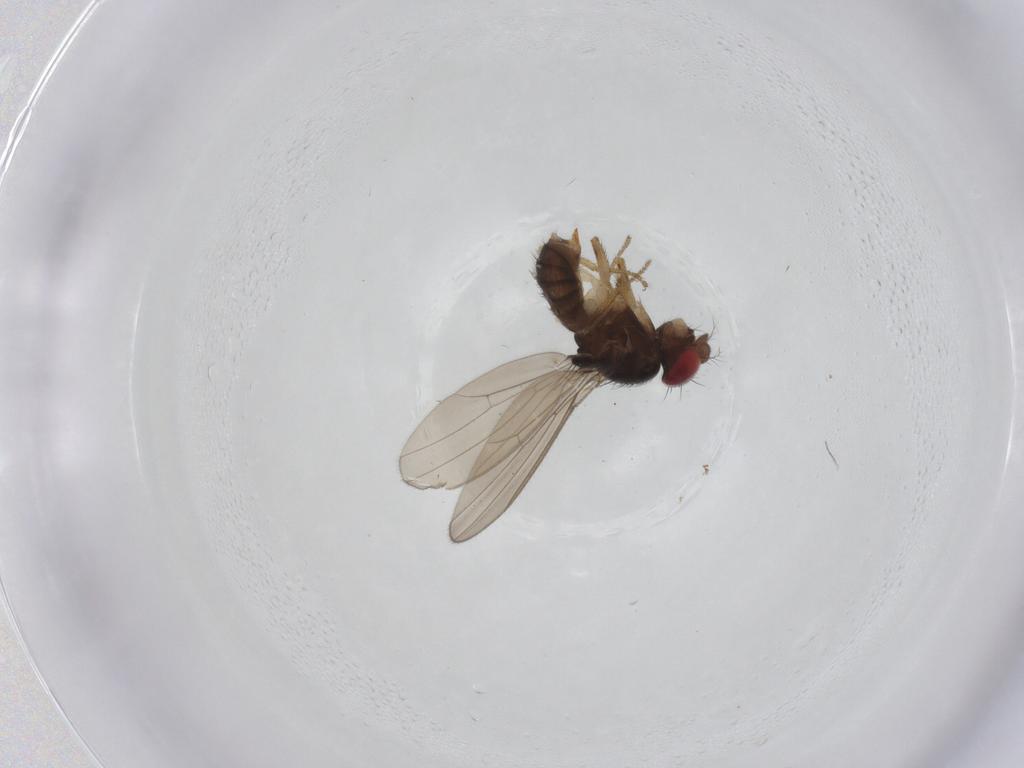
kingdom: Animalia
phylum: Arthropoda
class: Insecta
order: Diptera
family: Drosophilidae
